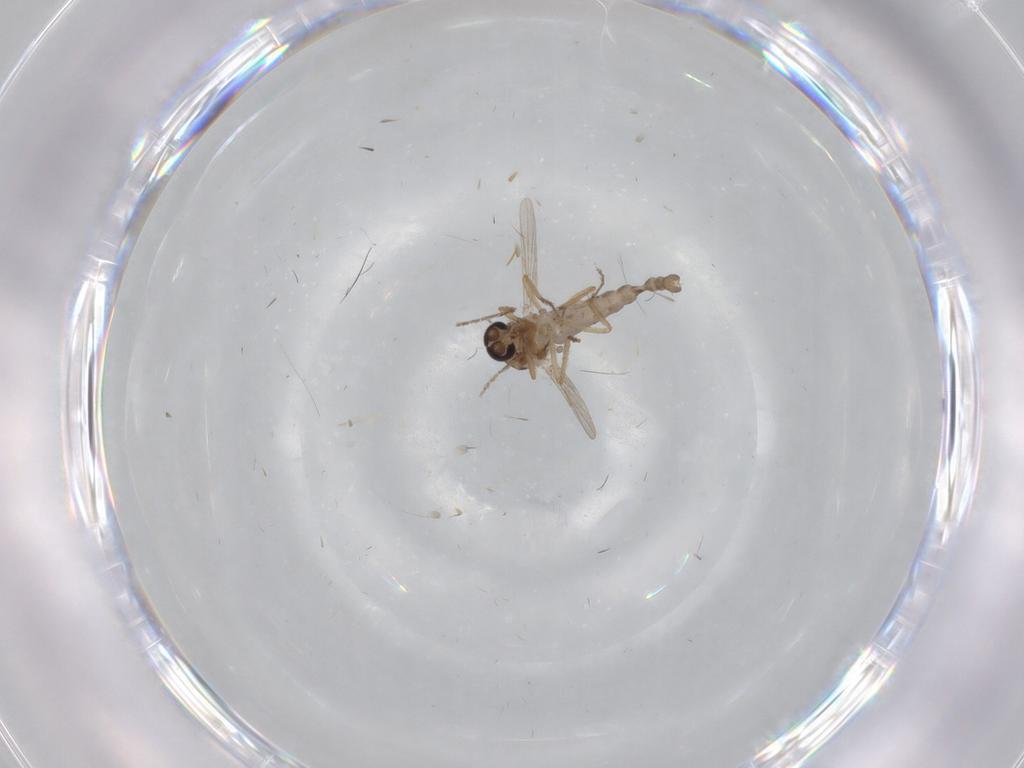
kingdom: Animalia
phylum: Arthropoda
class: Insecta
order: Diptera
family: Ceratopogonidae
